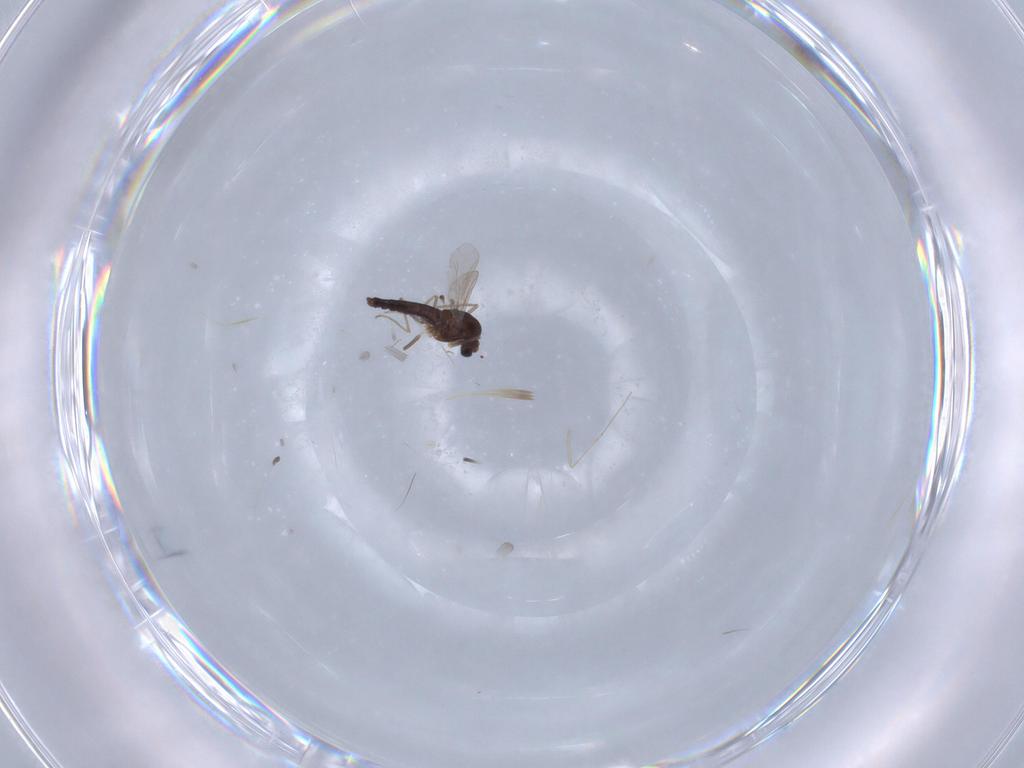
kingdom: Animalia
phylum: Arthropoda
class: Insecta
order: Diptera
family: Chironomidae
